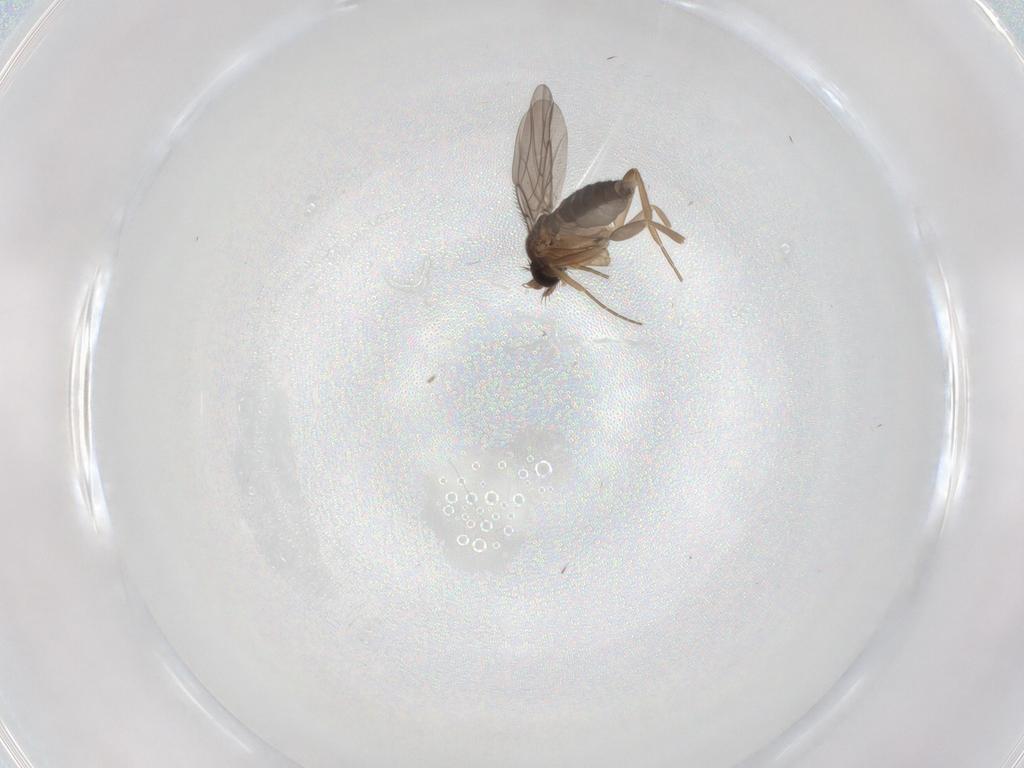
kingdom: Animalia
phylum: Arthropoda
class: Insecta
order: Diptera
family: Phoridae
